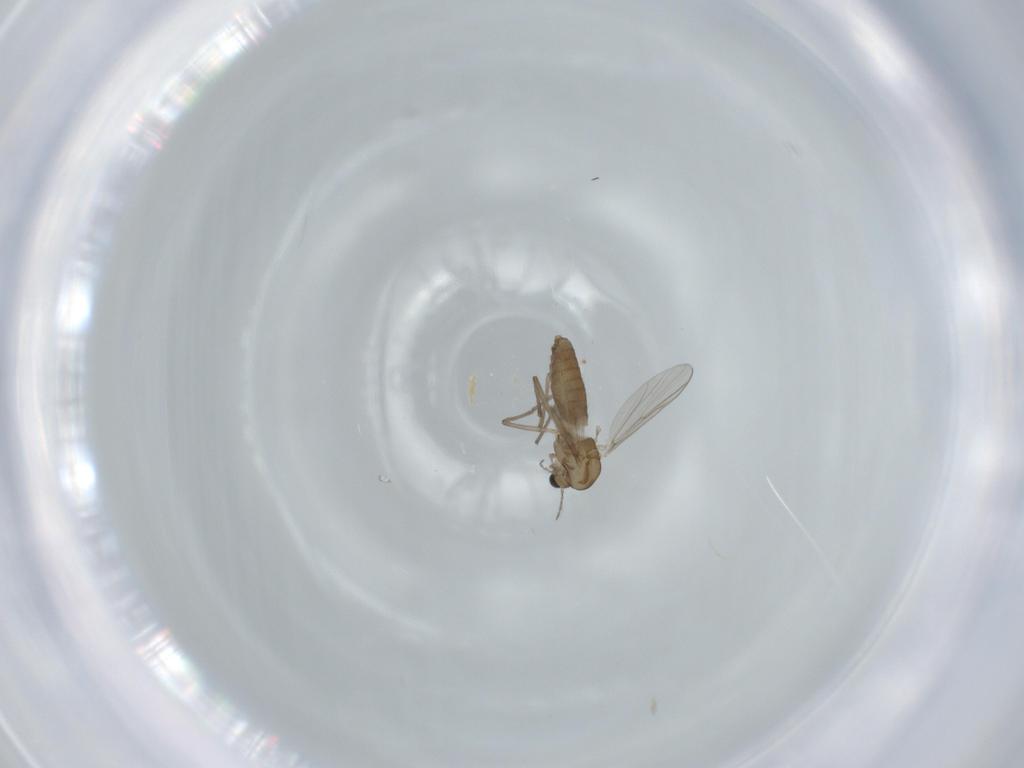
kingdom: Animalia
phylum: Arthropoda
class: Insecta
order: Diptera
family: Chironomidae
